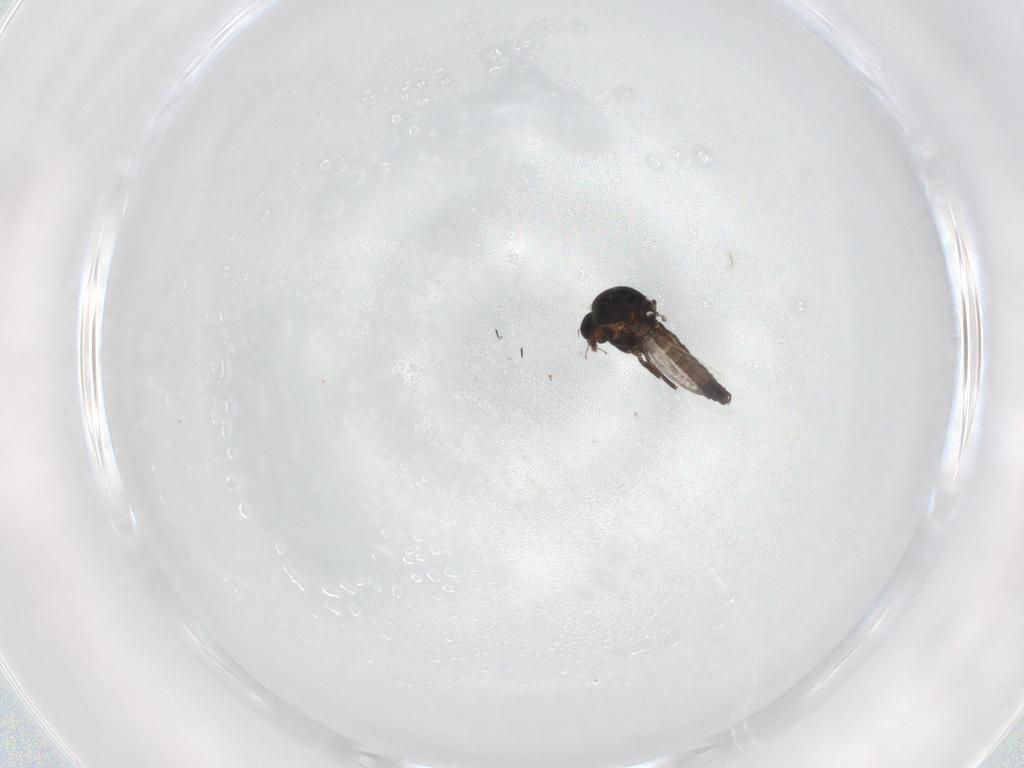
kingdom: Animalia
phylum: Arthropoda
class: Insecta
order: Diptera
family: Ceratopogonidae
